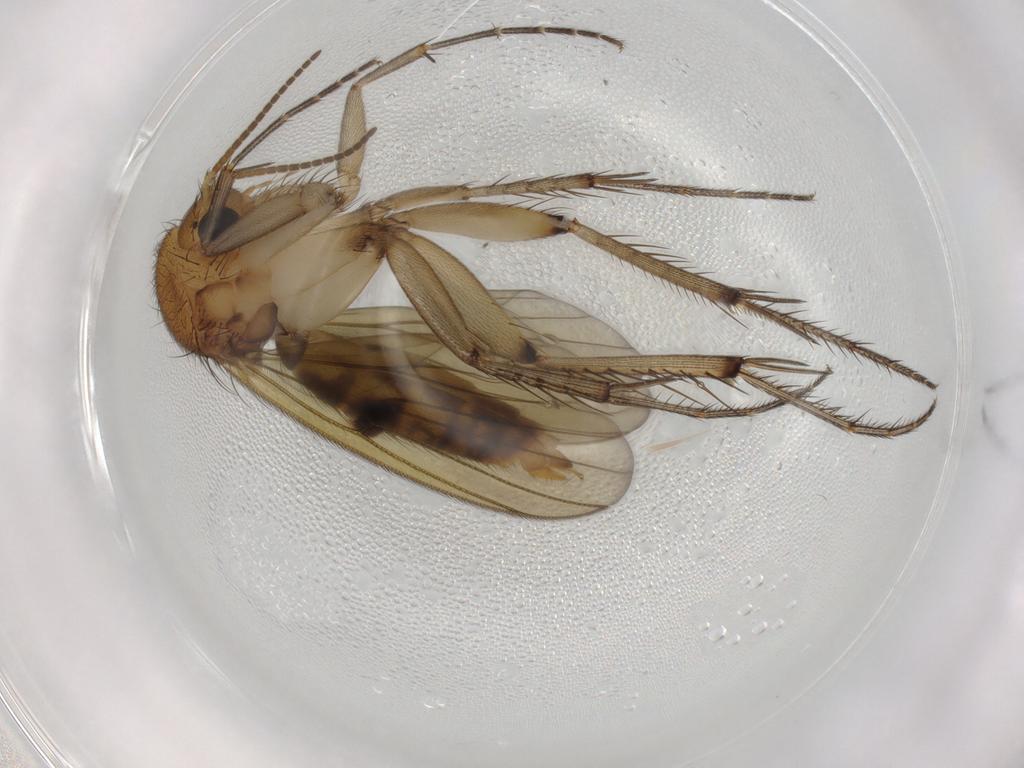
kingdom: Animalia
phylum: Arthropoda
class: Insecta
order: Diptera
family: Mycetophilidae
